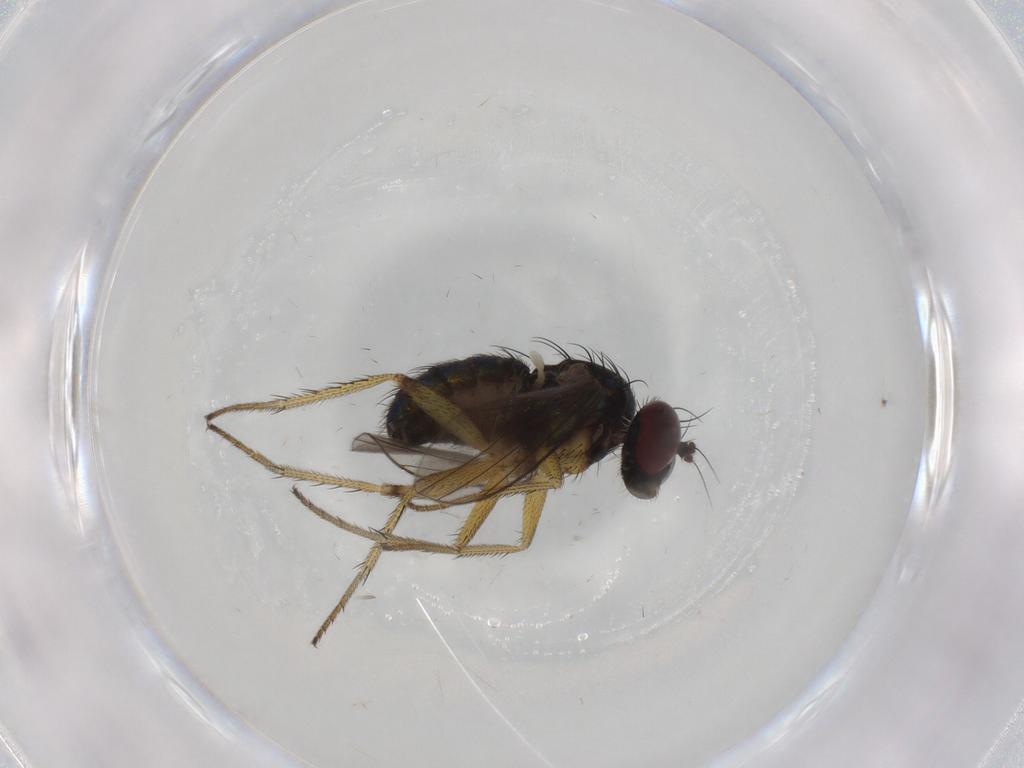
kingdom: Animalia
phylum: Arthropoda
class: Insecta
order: Diptera
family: Dolichopodidae
